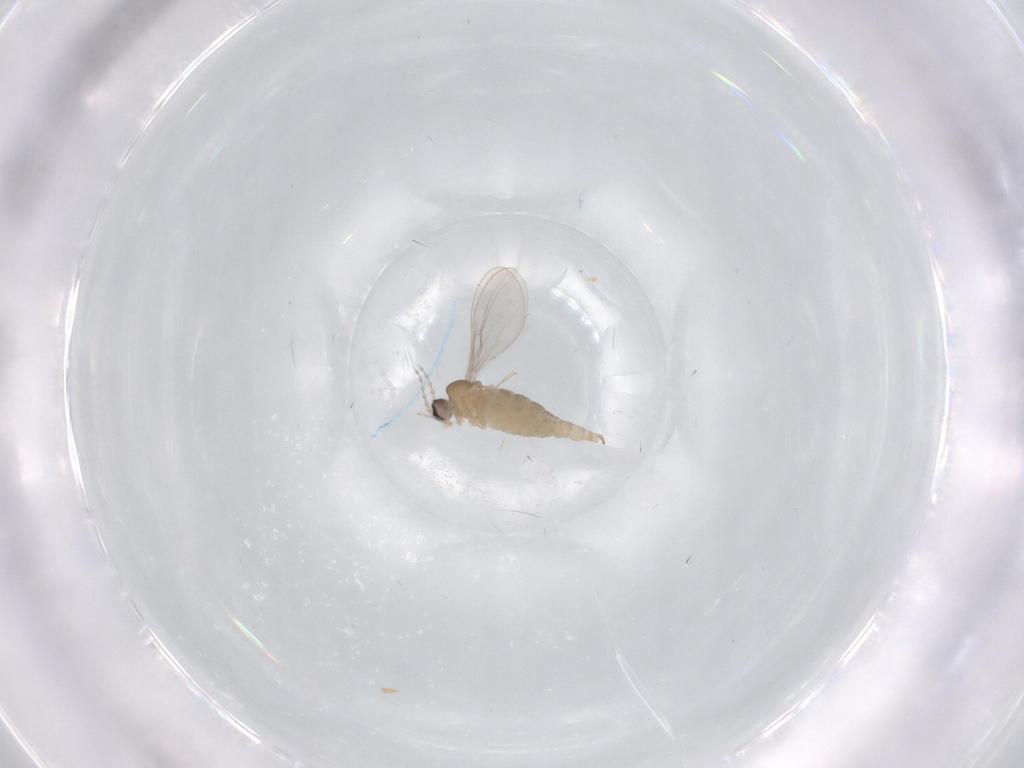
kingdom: Animalia
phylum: Arthropoda
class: Insecta
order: Diptera
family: Cecidomyiidae
